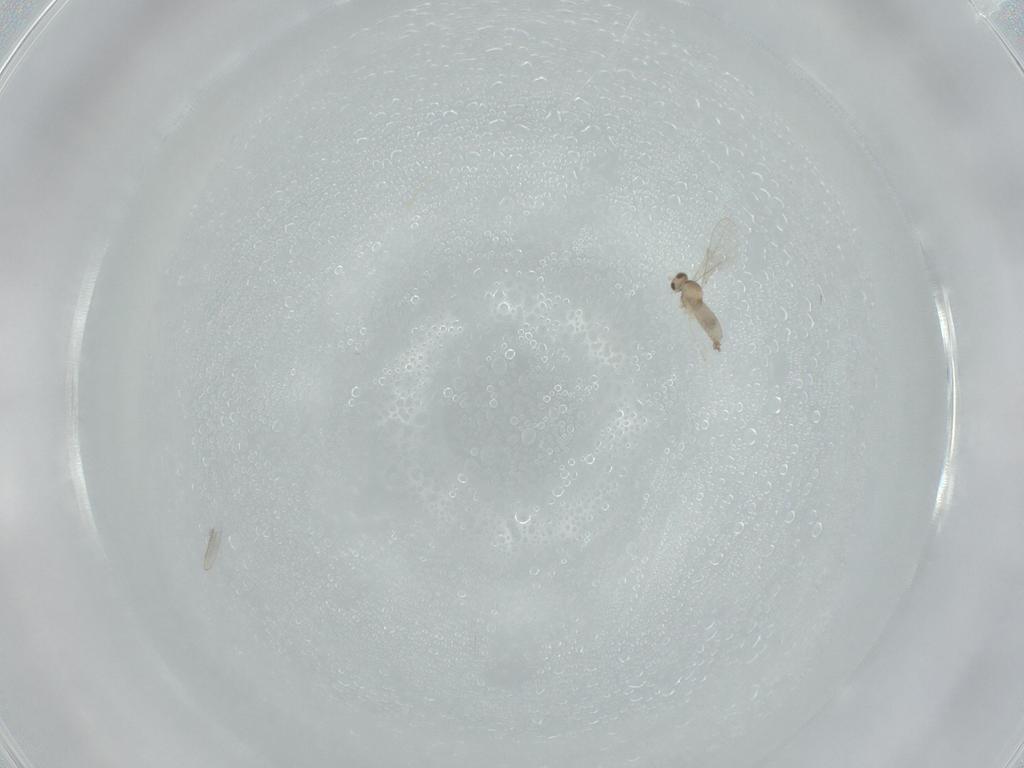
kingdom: Animalia
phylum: Arthropoda
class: Insecta
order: Diptera
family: Cecidomyiidae
